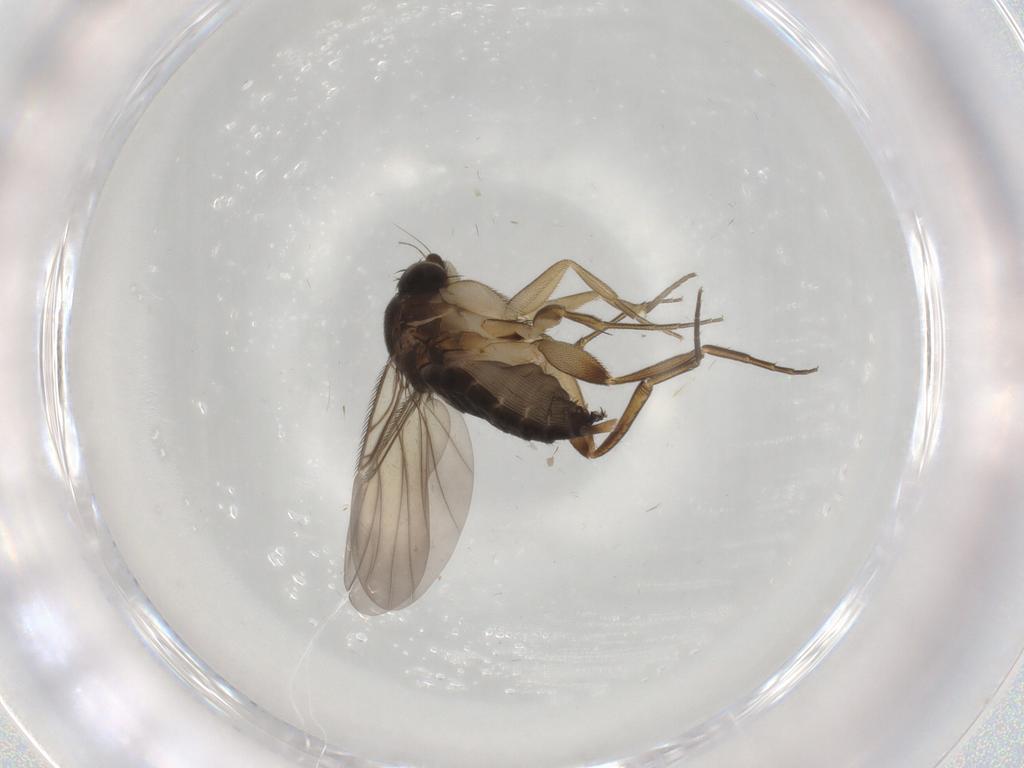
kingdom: Animalia
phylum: Arthropoda
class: Insecta
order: Diptera
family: Phoridae
